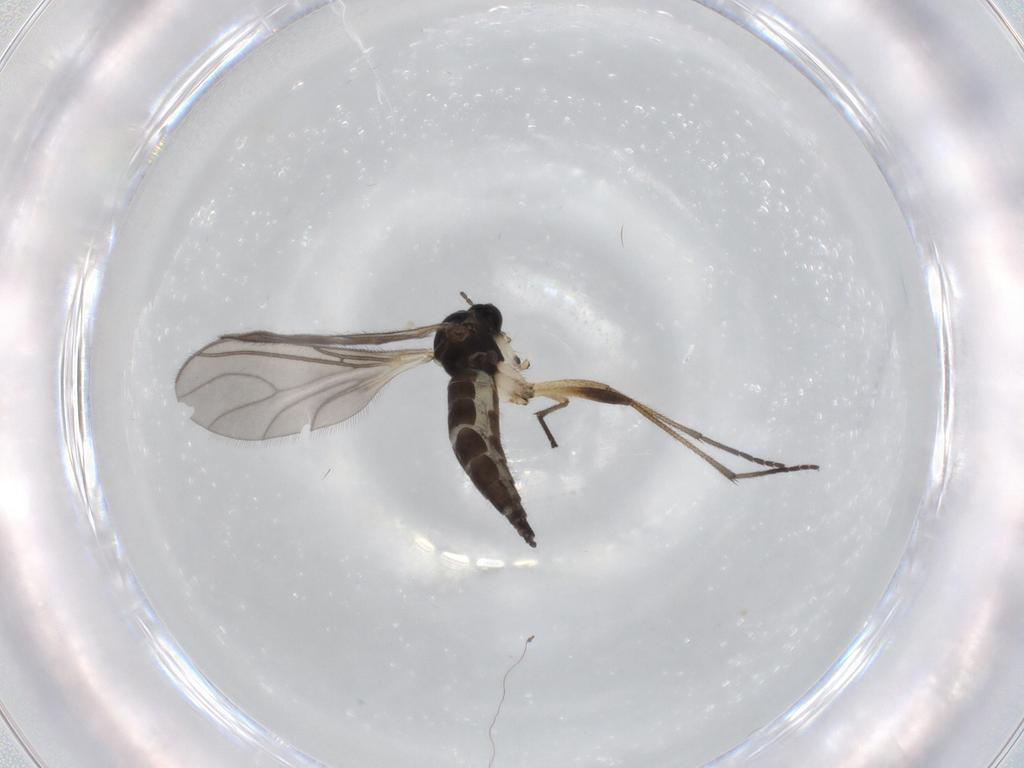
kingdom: Animalia
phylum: Arthropoda
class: Insecta
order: Diptera
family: Sciaridae
